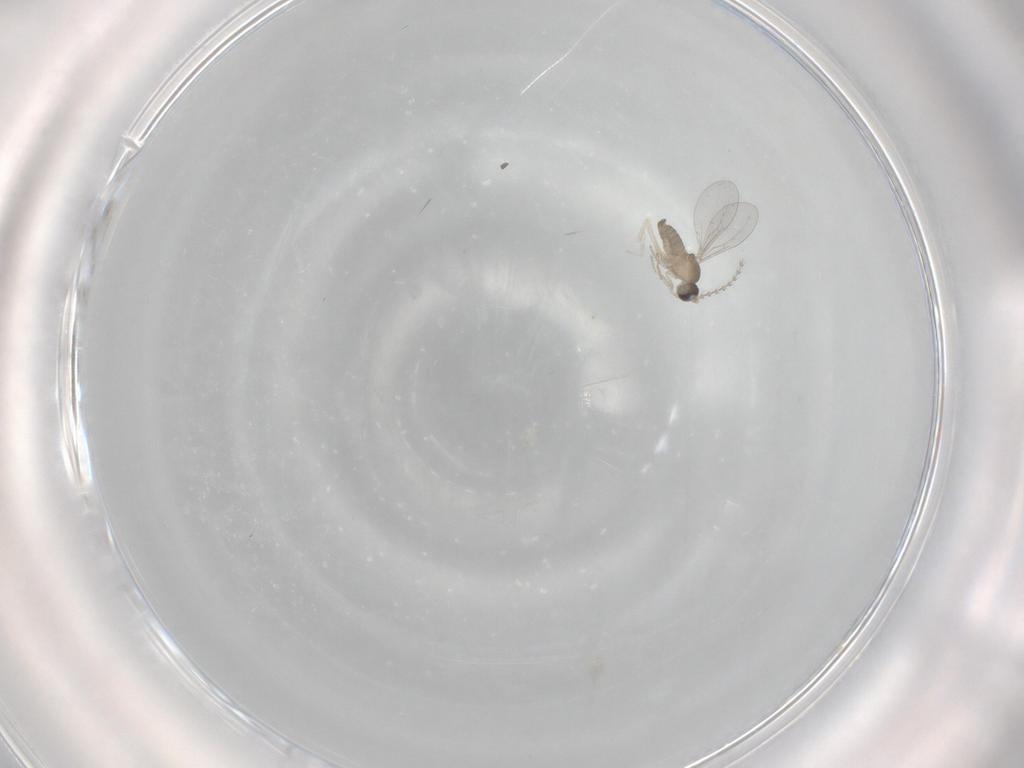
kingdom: Animalia
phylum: Arthropoda
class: Insecta
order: Diptera
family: Cecidomyiidae
